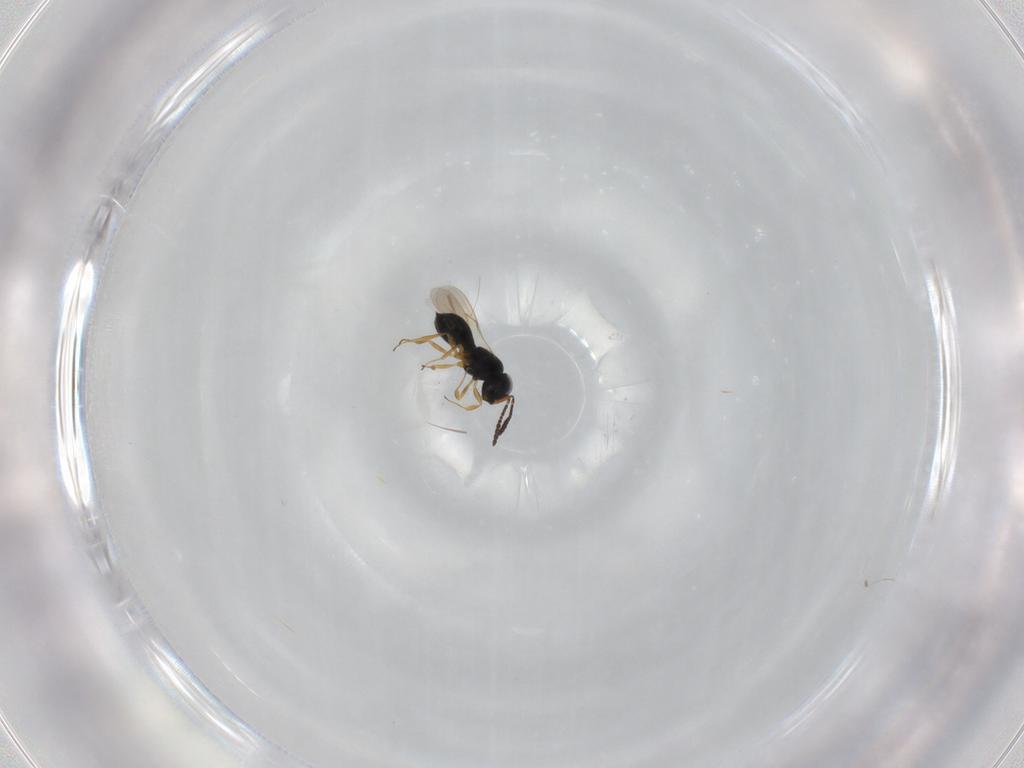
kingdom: Animalia
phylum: Arthropoda
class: Insecta
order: Hymenoptera
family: Scelionidae
